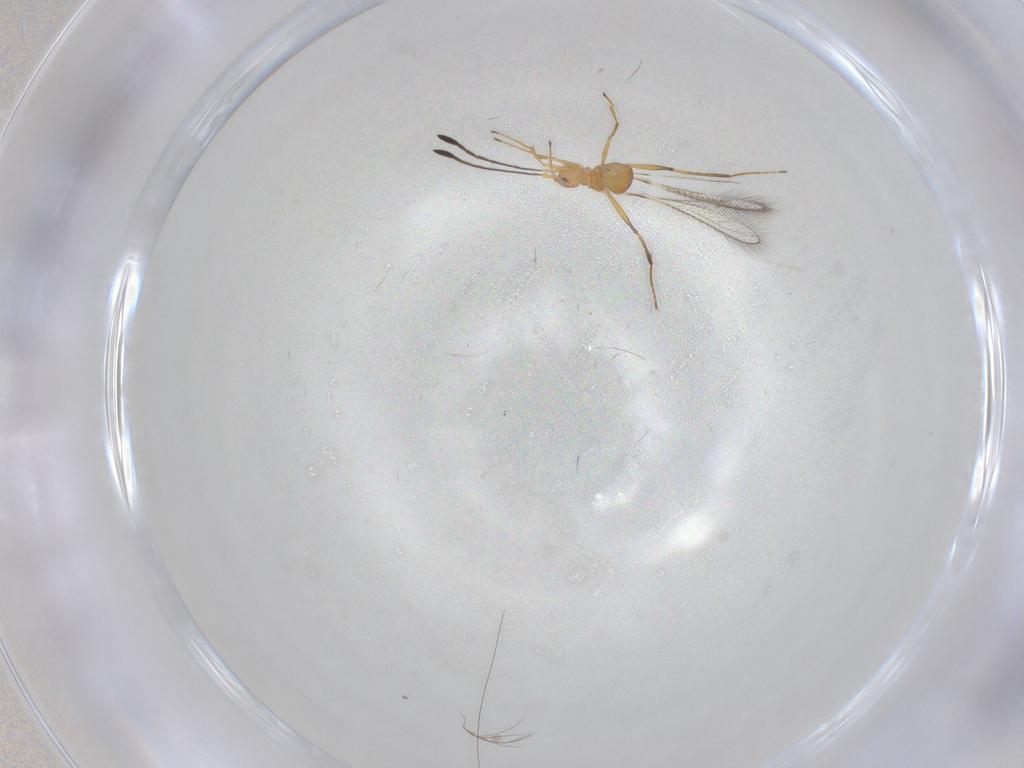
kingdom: Animalia
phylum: Arthropoda
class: Insecta
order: Hymenoptera
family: Mymaridae
